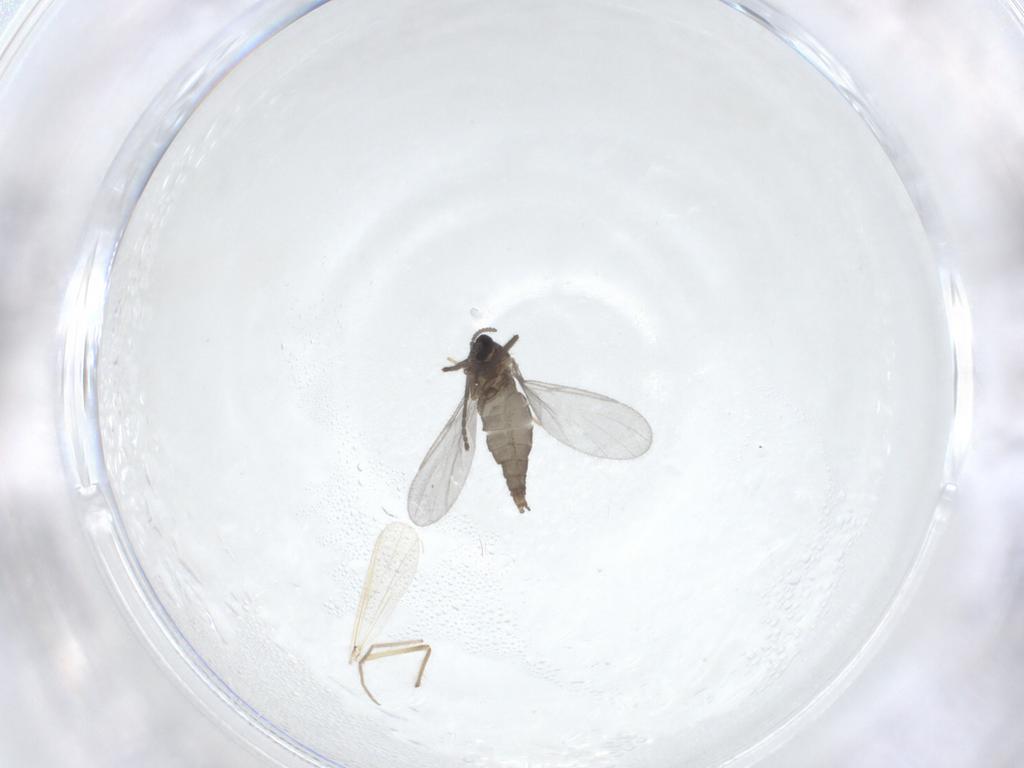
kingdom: Animalia
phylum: Arthropoda
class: Insecta
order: Diptera
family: Cecidomyiidae
